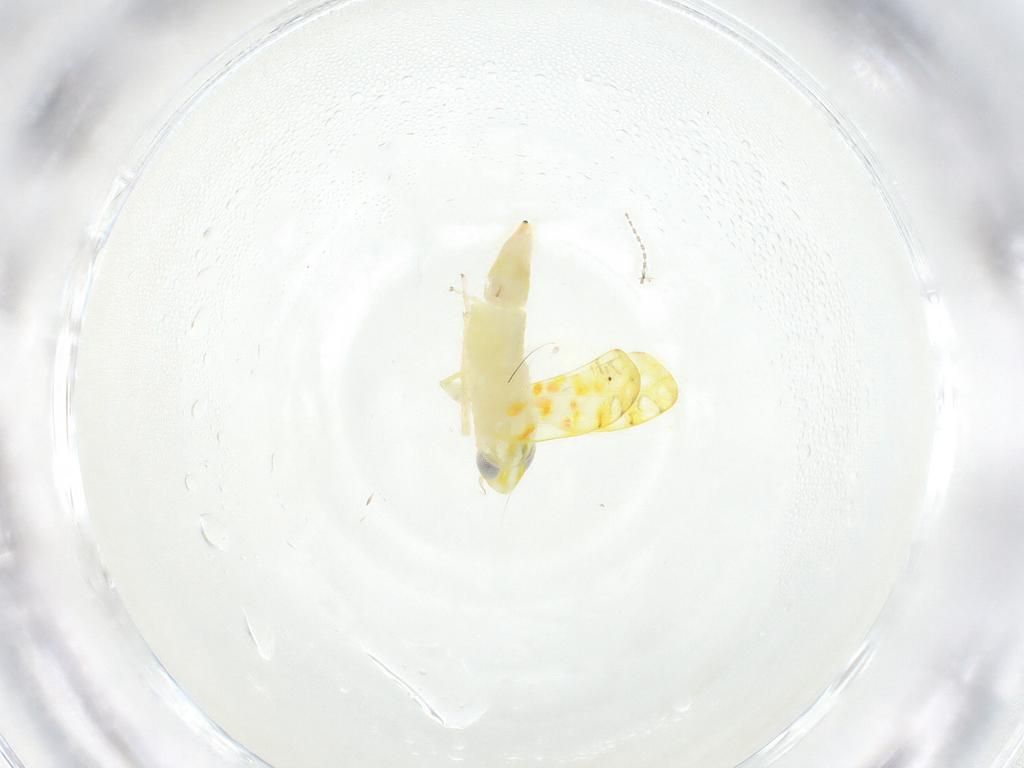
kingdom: Animalia
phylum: Arthropoda
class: Insecta
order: Hemiptera
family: Cicadellidae
